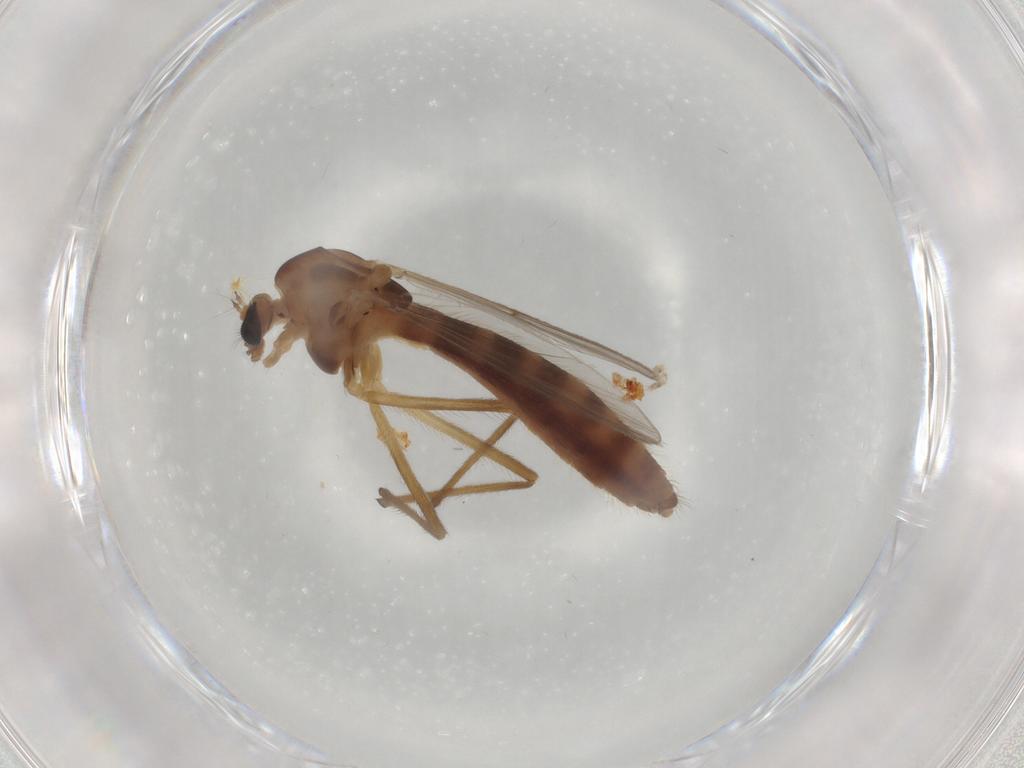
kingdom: Animalia
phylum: Arthropoda
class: Insecta
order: Diptera
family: Chironomidae
